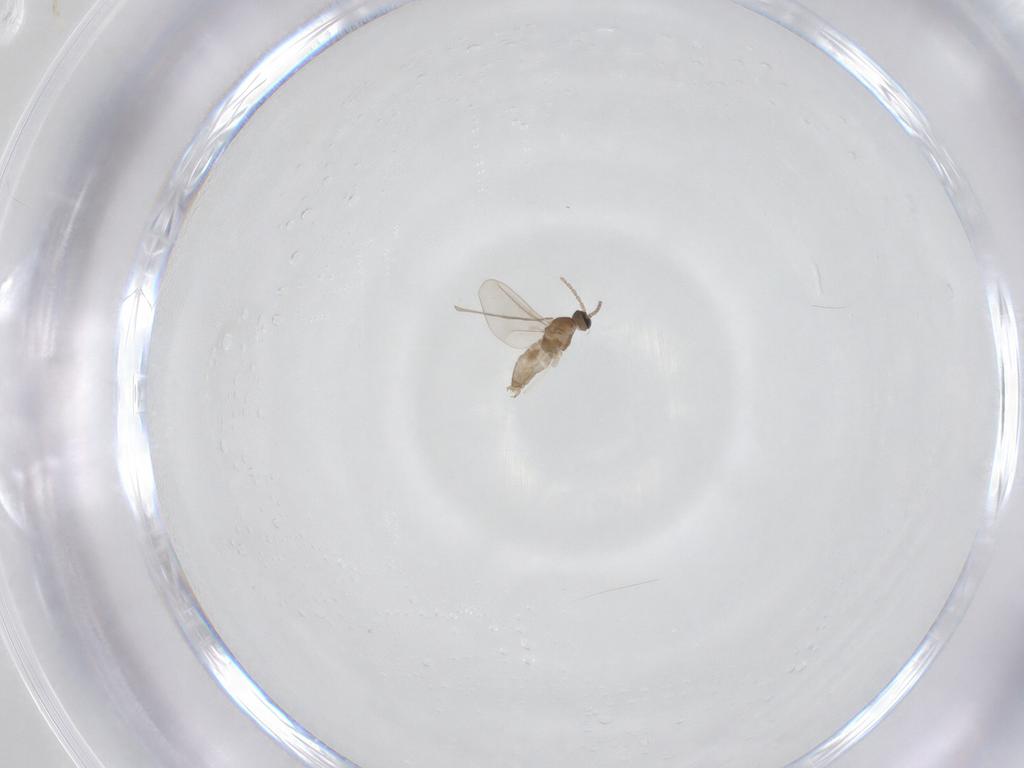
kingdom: Animalia
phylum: Arthropoda
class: Insecta
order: Diptera
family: Cecidomyiidae
